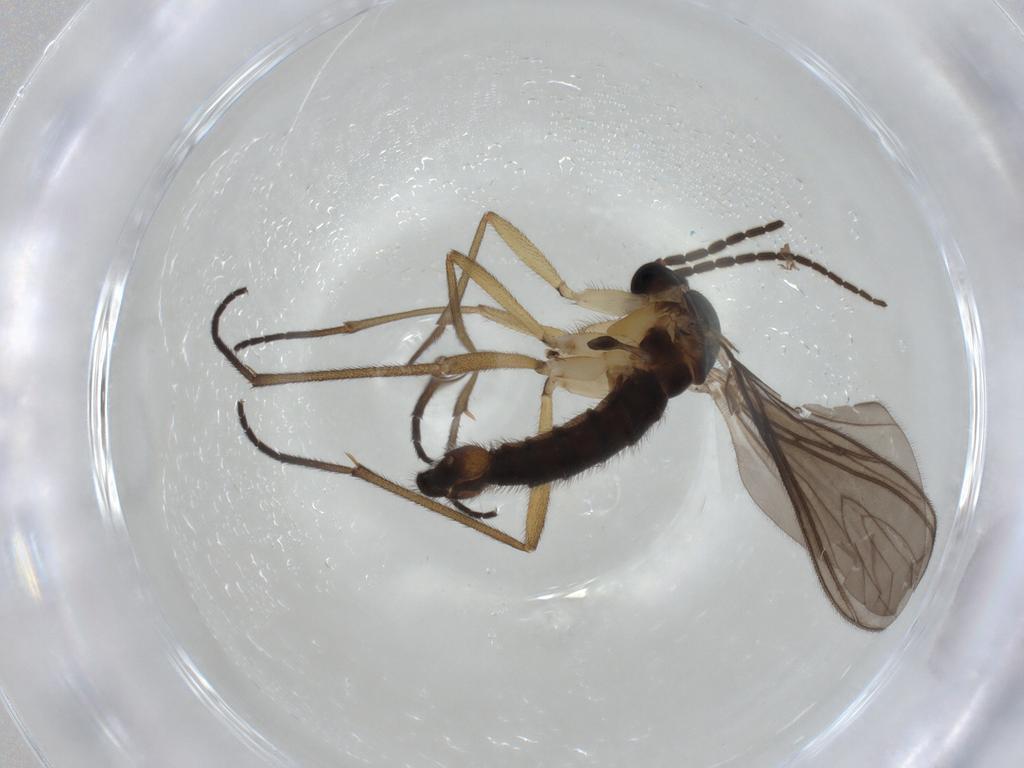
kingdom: Animalia
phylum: Arthropoda
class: Insecta
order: Diptera
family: Sciaridae
